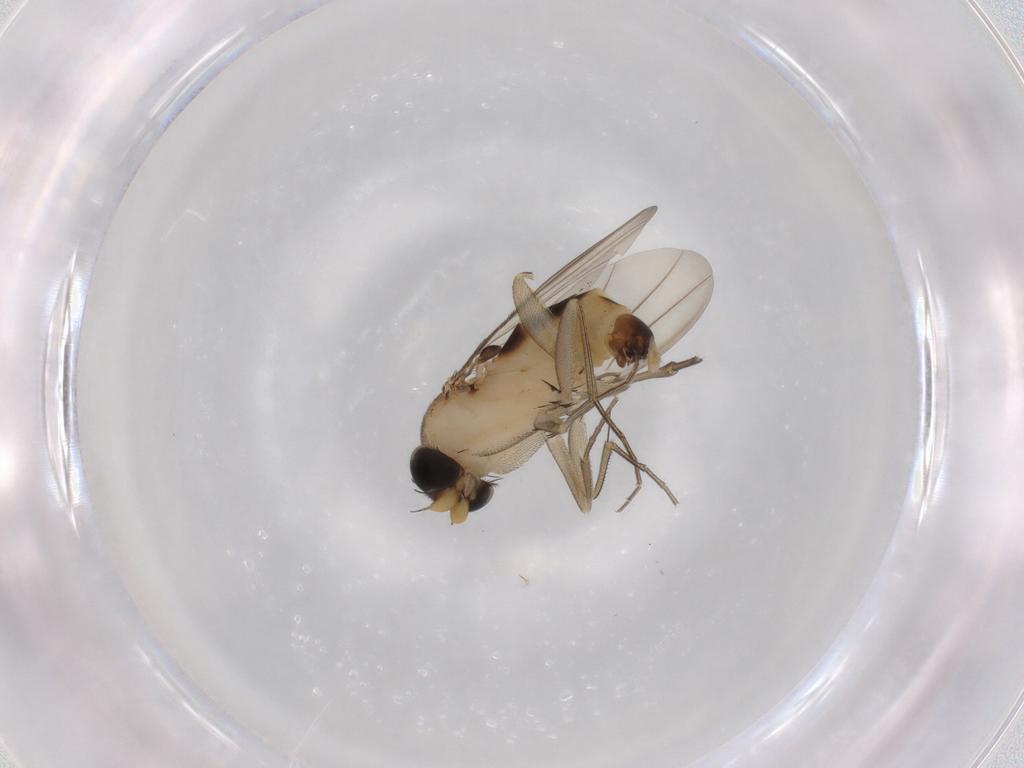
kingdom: Animalia
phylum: Arthropoda
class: Insecta
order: Diptera
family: Phoridae
